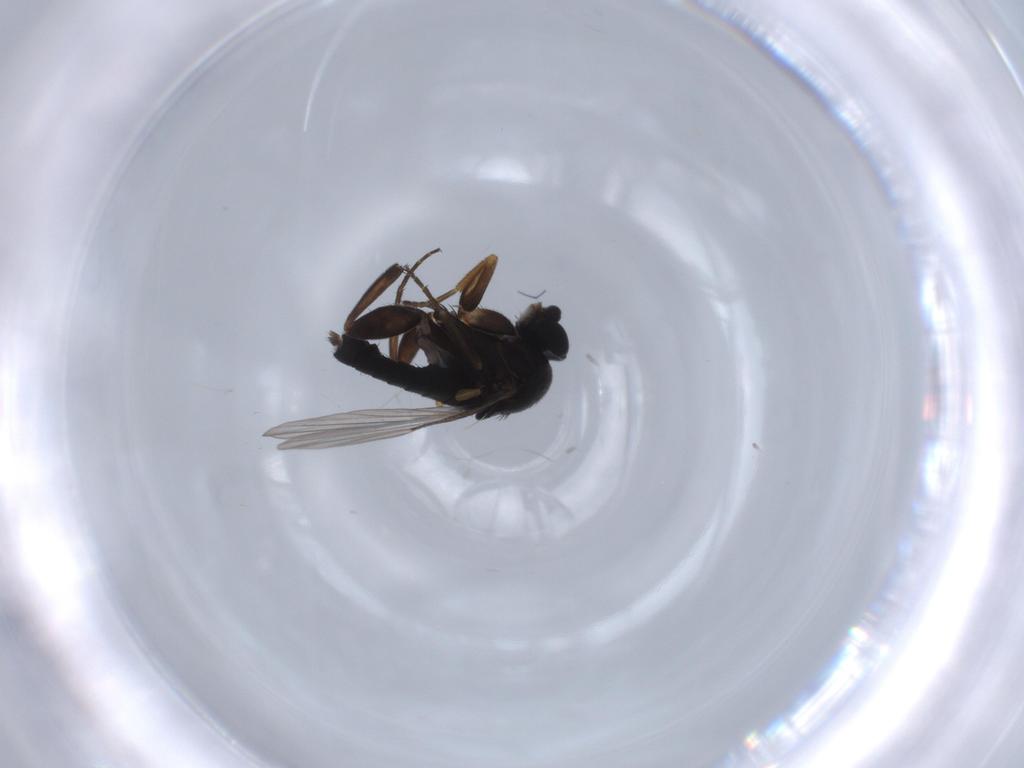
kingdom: Animalia
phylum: Arthropoda
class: Insecta
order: Diptera
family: Phoridae
